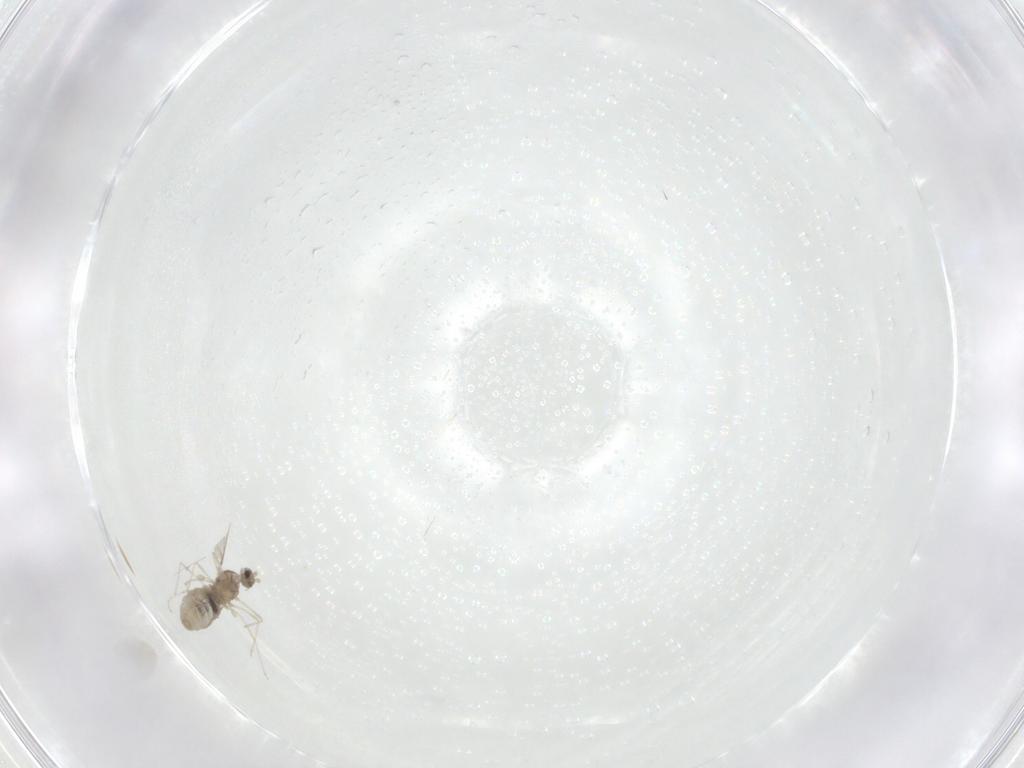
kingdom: Animalia
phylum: Arthropoda
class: Insecta
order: Diptera
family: Cecidomyiidae
